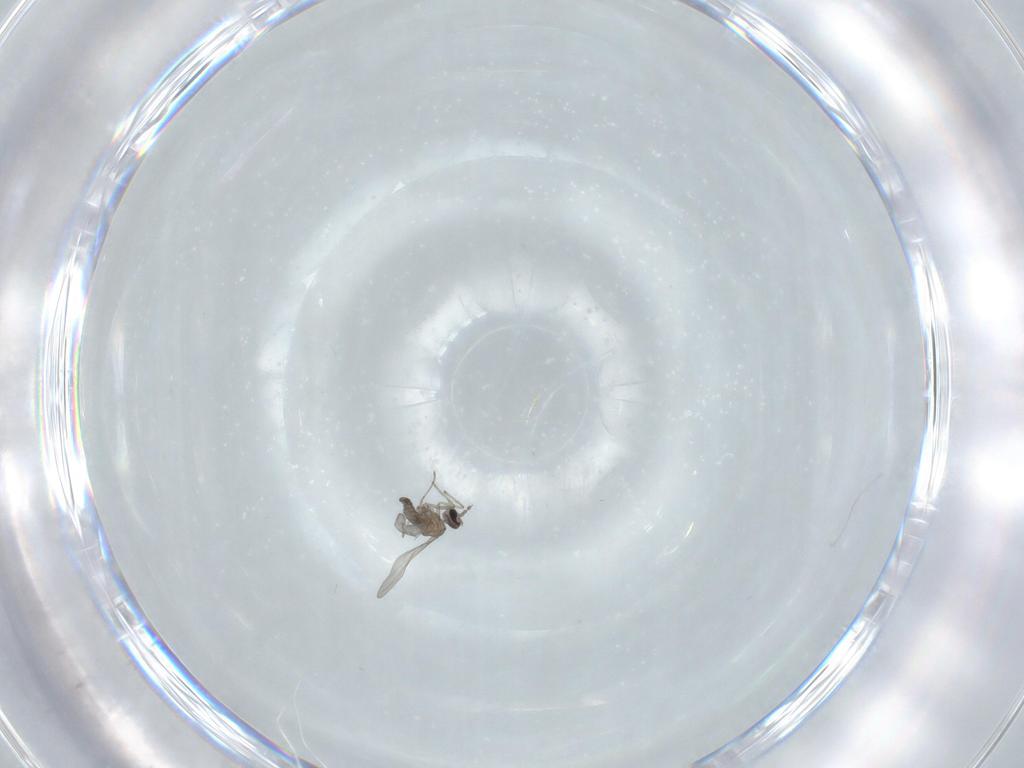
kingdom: Animalia
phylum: Arthropoda
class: Insecta
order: Diptera
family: Cecidomyiidae
